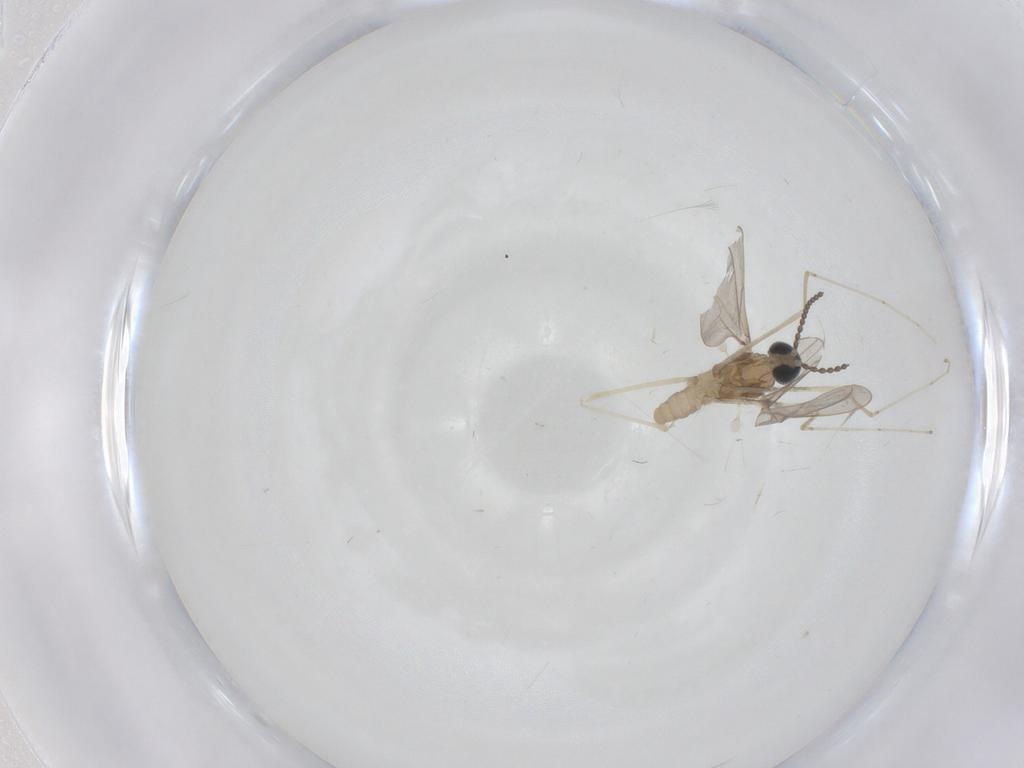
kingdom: Animalia
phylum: Arthropoda
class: Insecta
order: Diptera
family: Cecidomyiidae
